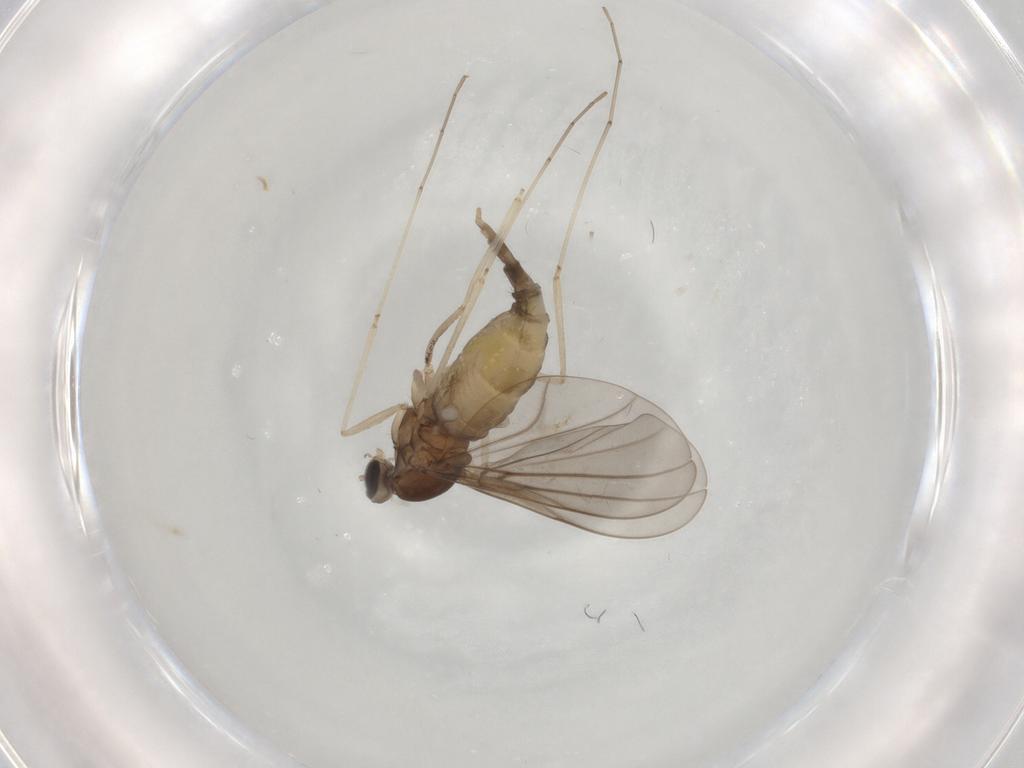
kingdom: Animalia
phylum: Arthropoda
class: Insecta
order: Diptera
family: Cecidomyiidae
